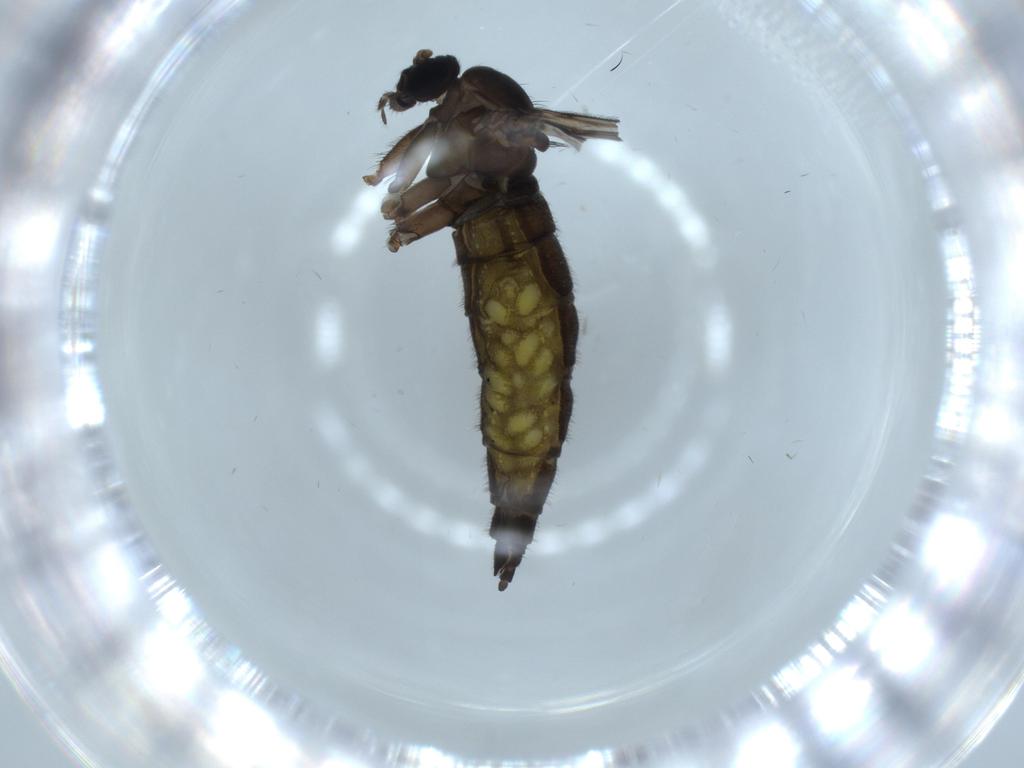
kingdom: Animalia
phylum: Arthropoda
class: Insecta
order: Diptera
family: Sciaridae
